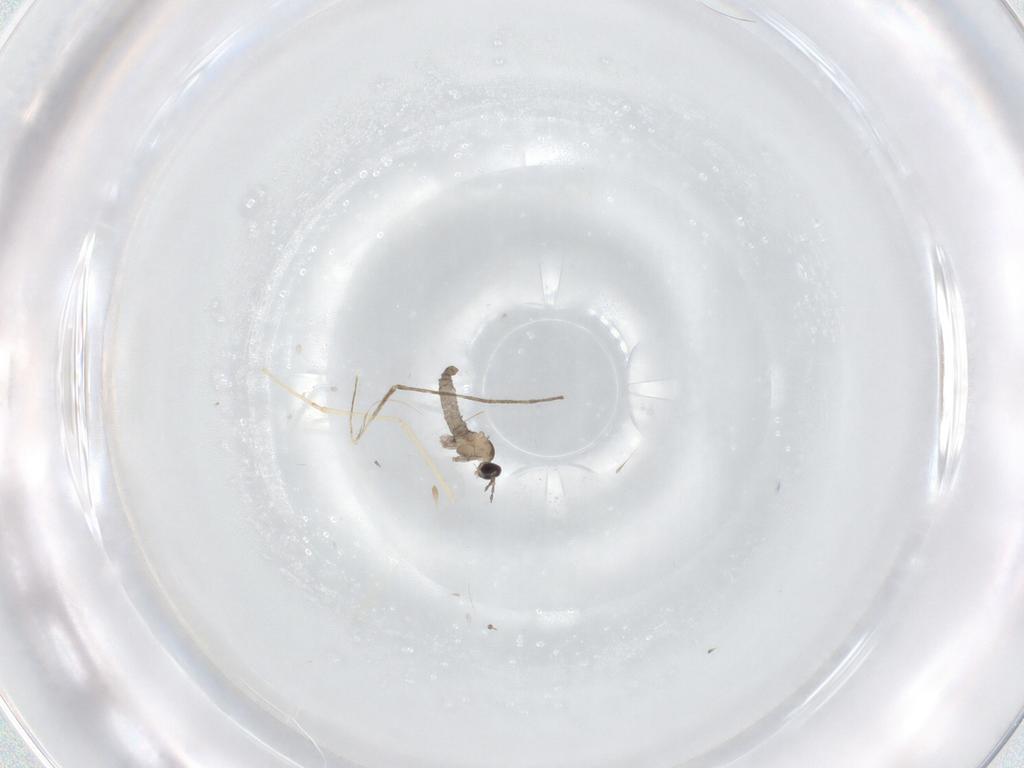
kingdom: Animalia
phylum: Arthropoda
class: Insecta
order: Diptera
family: Cecidomyiidae
